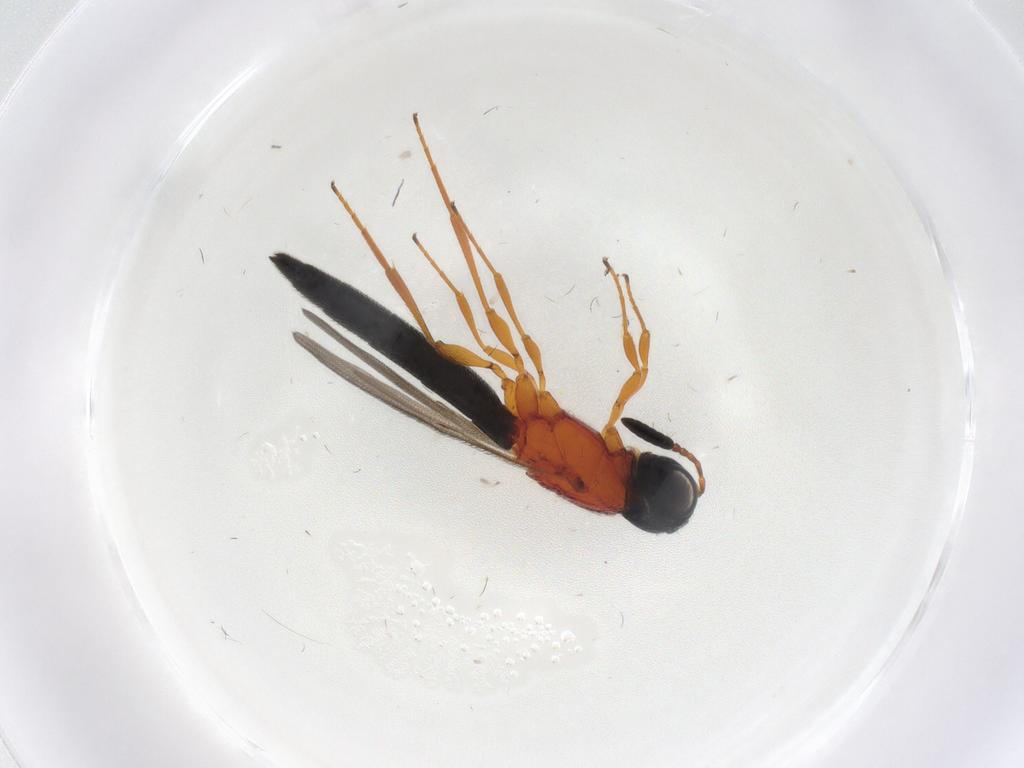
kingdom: Animalia
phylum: Arthropoda
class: Insecta
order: Hymenoptera
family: Scelionidae
